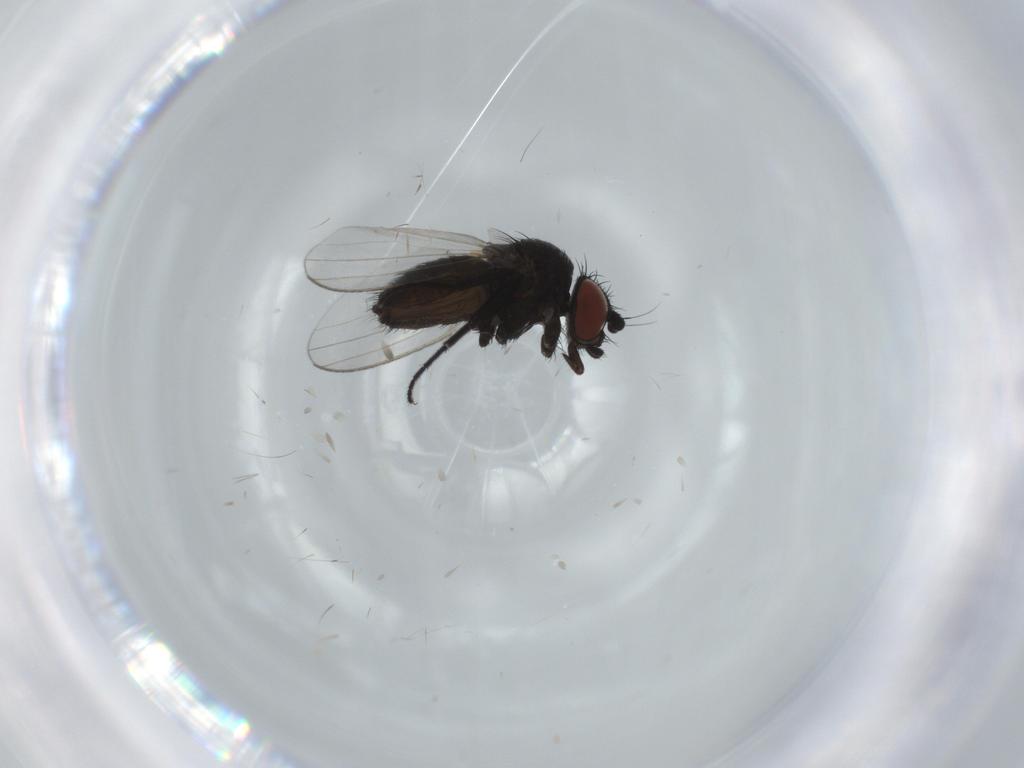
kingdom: Animalia
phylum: Arthropoda
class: Insecta
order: Diptera
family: Milichiidae
